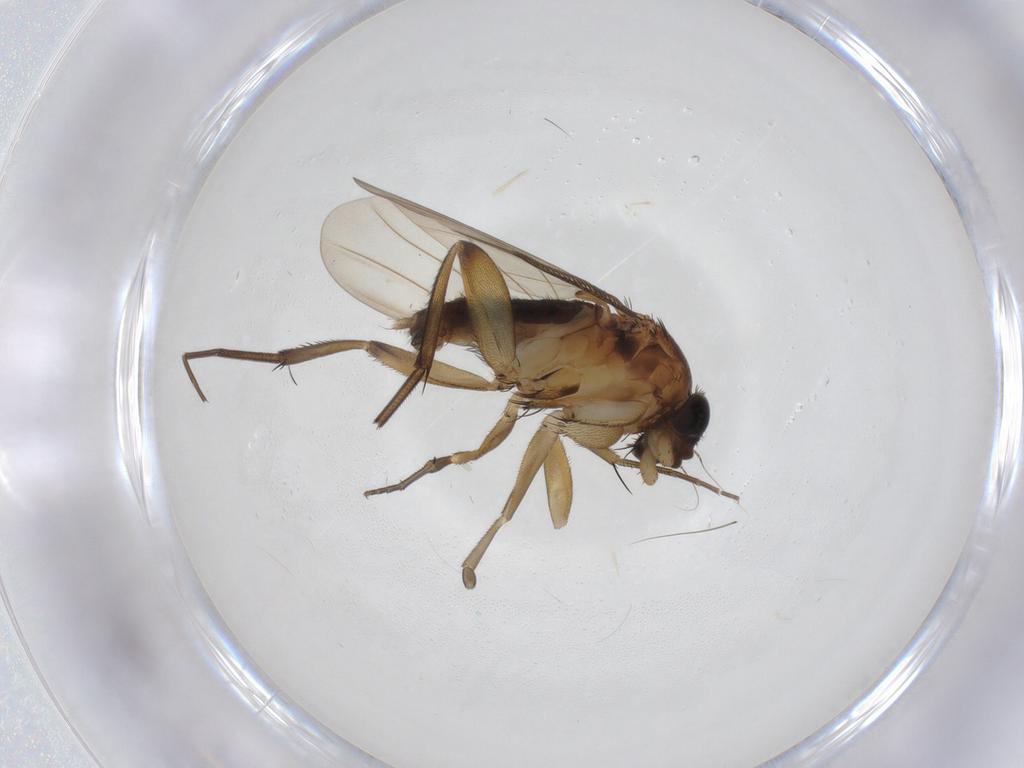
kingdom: Animalia
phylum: Arthropoda
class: Insecta
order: Diptera
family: Phoridae
